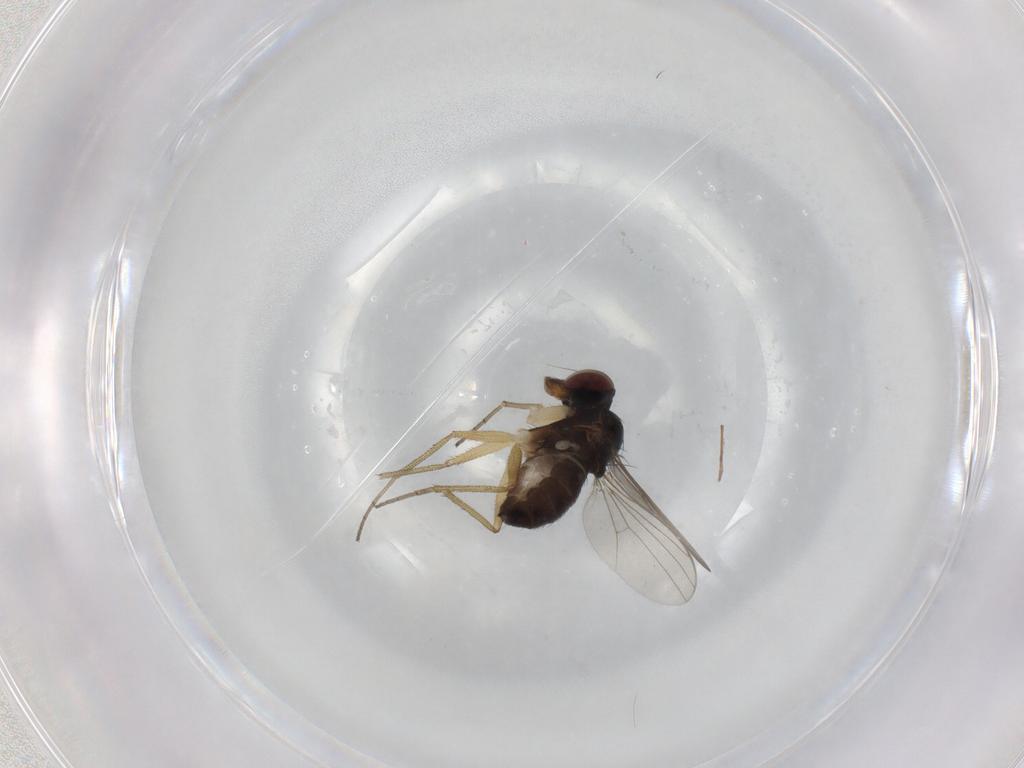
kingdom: Animalia
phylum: Arthropoda
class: Insecta
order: Diptera
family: Dolichopodidae
